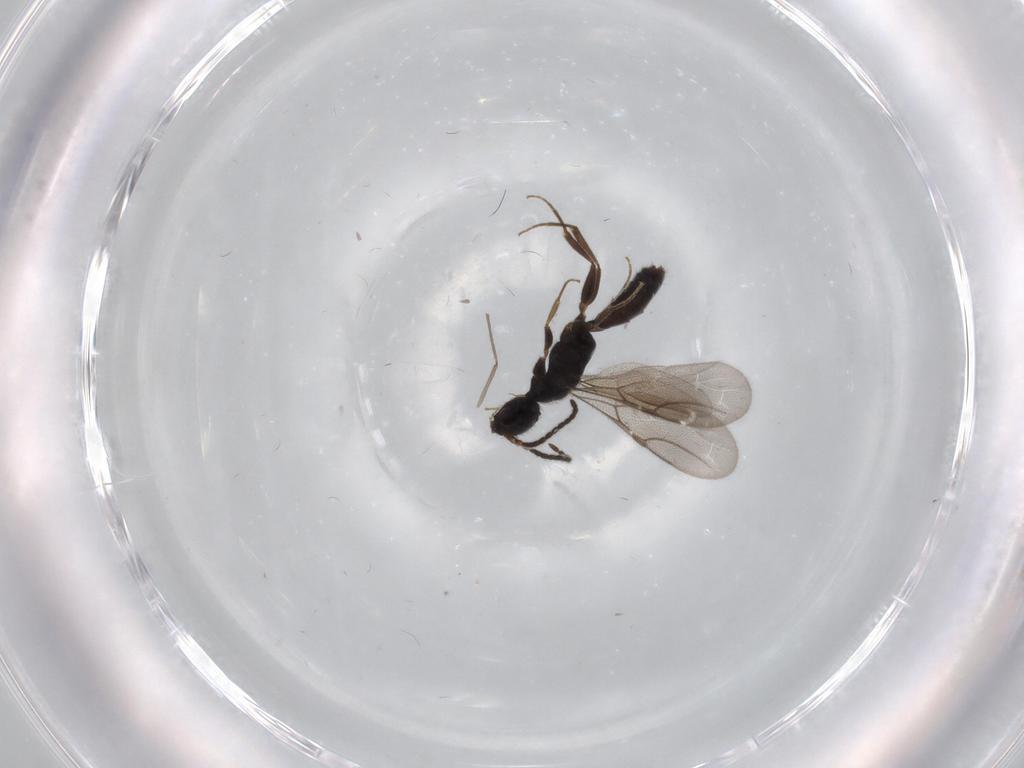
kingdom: Animalia
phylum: Arthropoda
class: Insecta
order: Hymenoptera
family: Bethylidae
